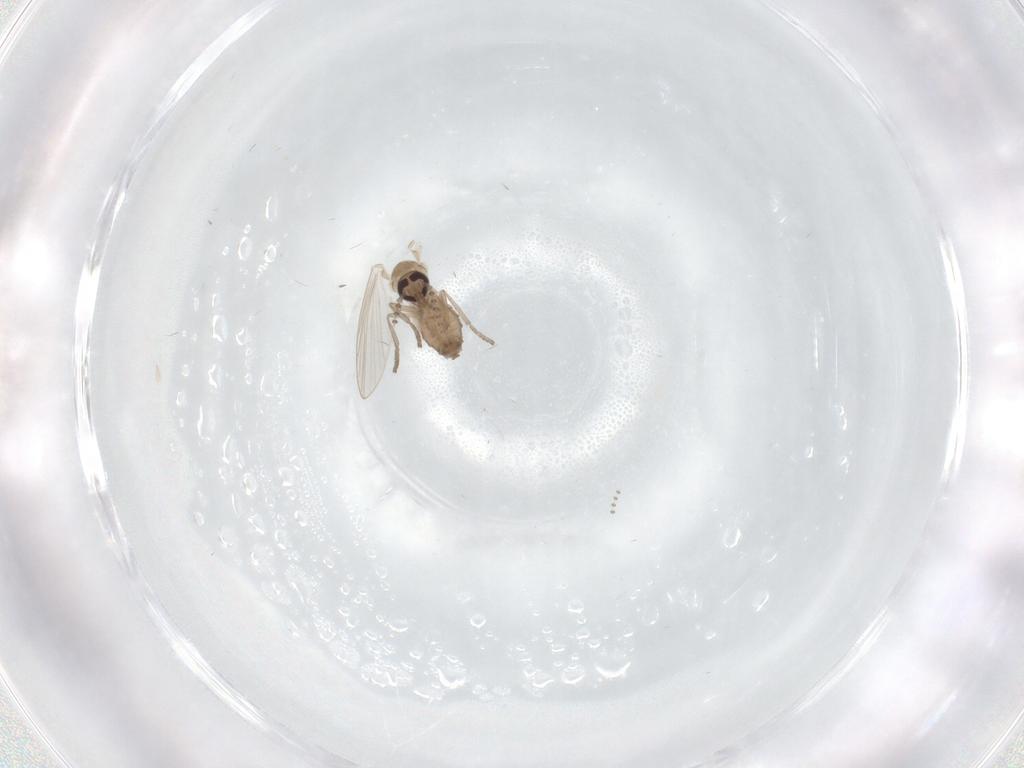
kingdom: Animalia
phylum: Arthropoda
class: Insecta
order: Diptera
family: Psychodidae
